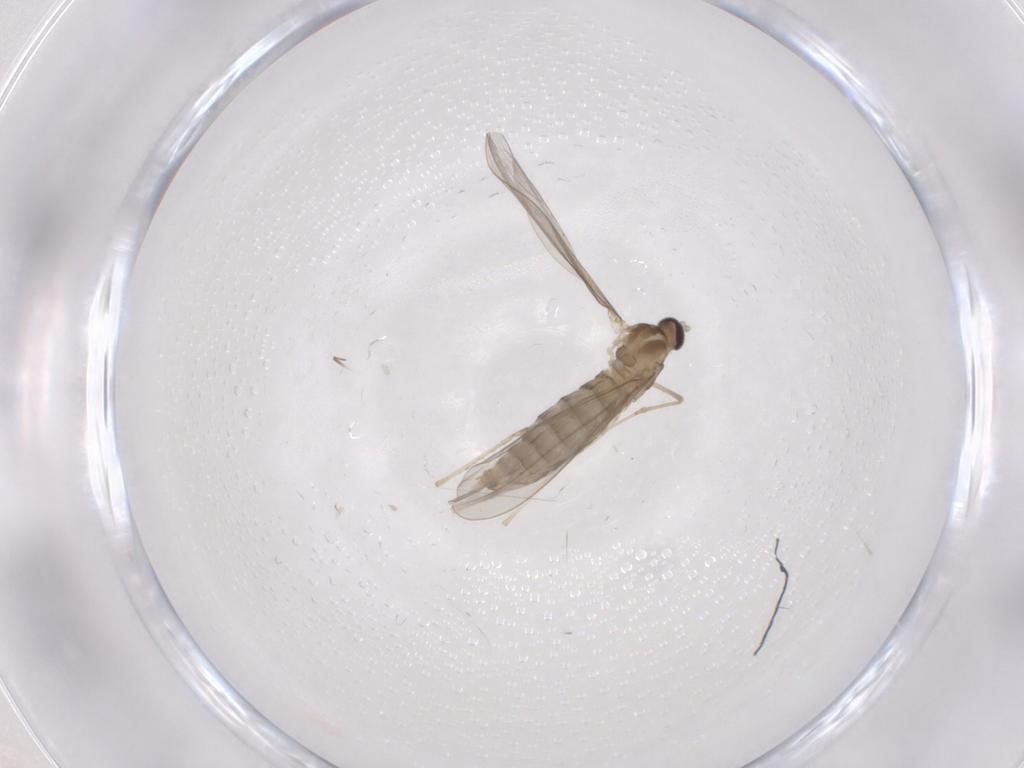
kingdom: Animalia
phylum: Arthropoda
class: Insecta
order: Diptera
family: Cecidomyiidae
